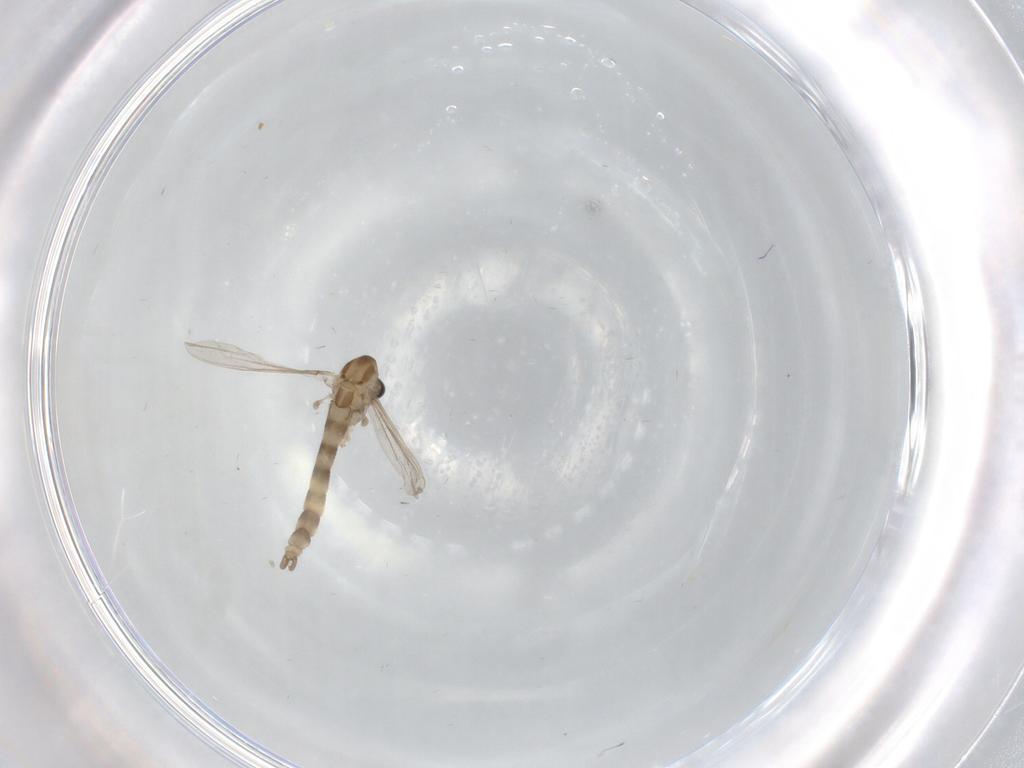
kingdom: Animalia
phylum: Arthropoda
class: Insecta
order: Diptera
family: Chironomidae
